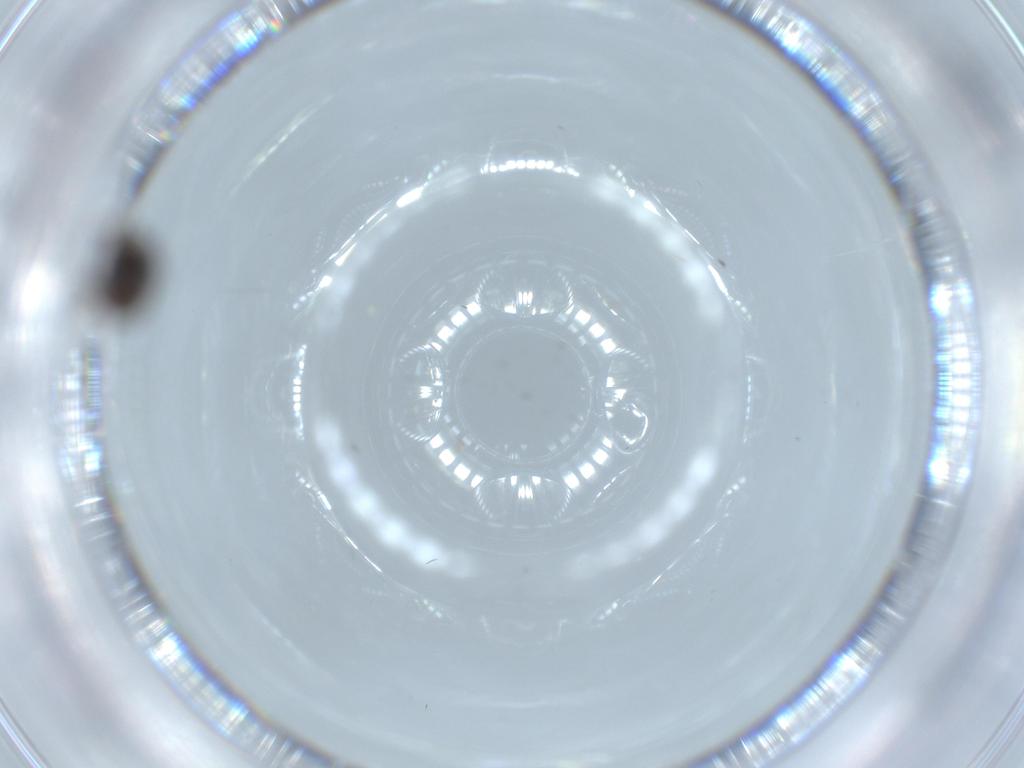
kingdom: Animalia
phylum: Arthropoda
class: Insecta
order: Diptera
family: Sphaeroceridae
